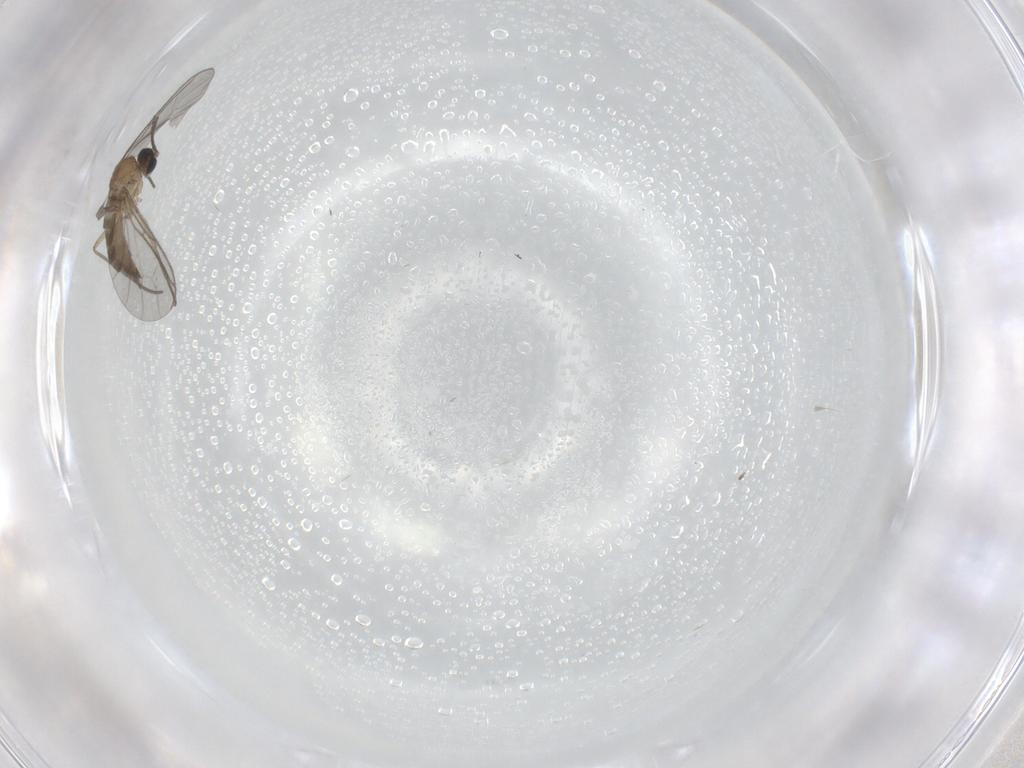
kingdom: Animalia
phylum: Arthropoda
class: Insecta
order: Diptera
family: Sciaridae
